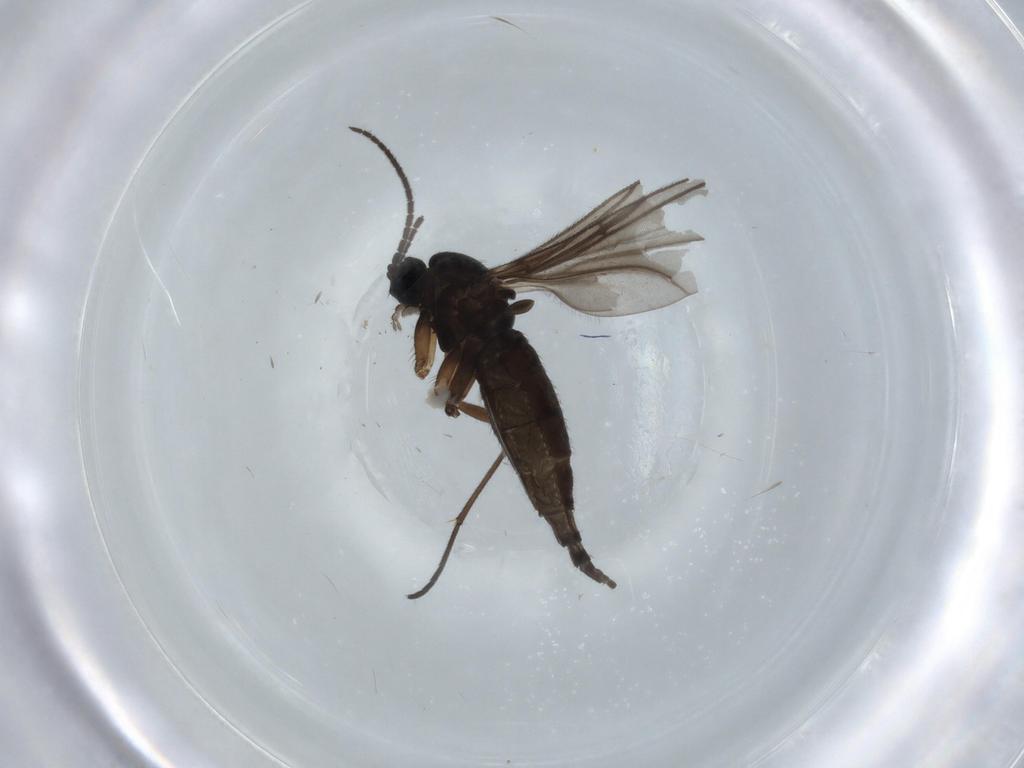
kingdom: Animalia
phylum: Arthropoda
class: Insecta
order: Diptera
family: Sciaridae
